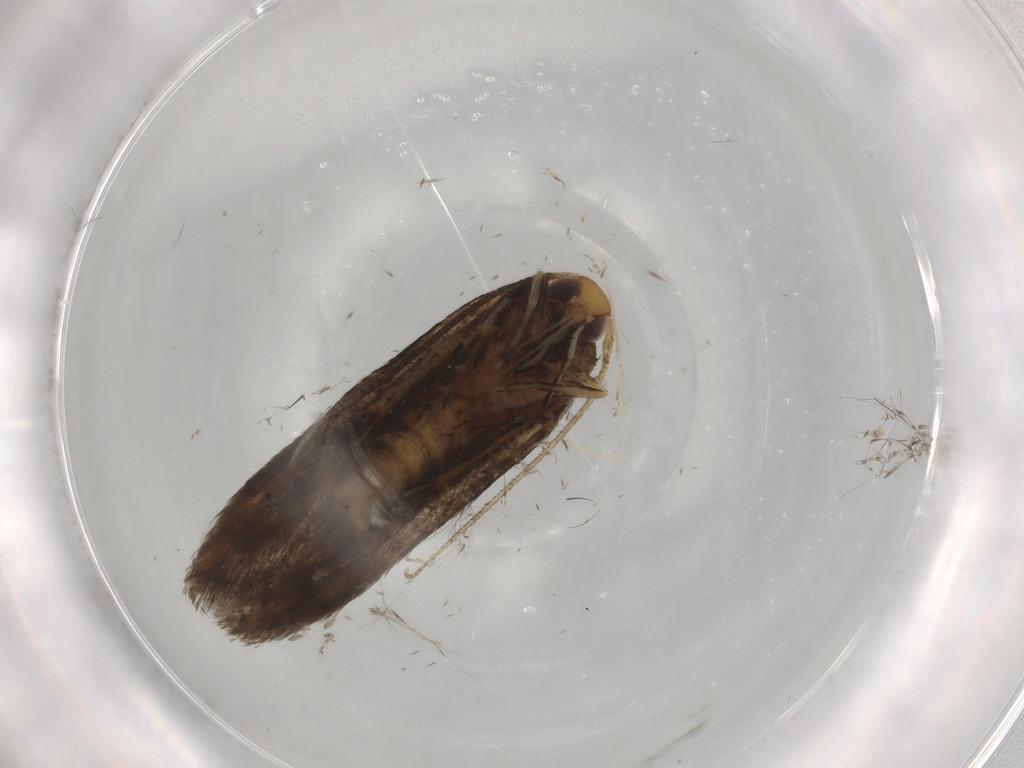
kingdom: Animalia
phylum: Arthropoda
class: Insecta
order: Lepidoptera
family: Cosmopterigidae
